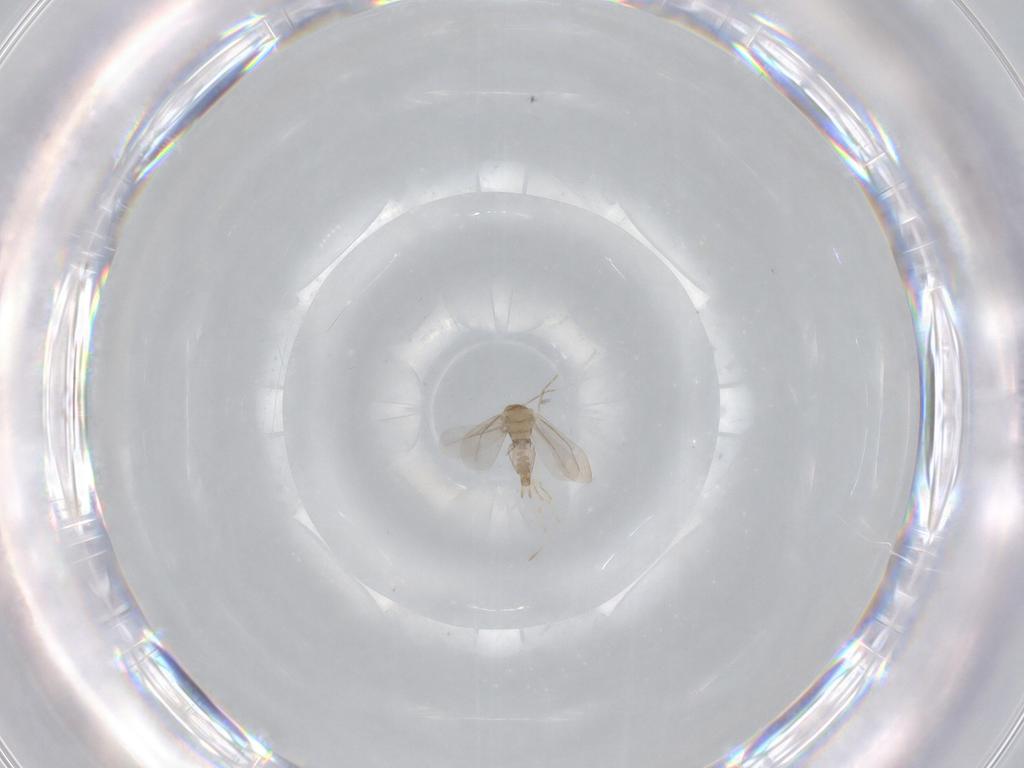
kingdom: Animalia
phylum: Arthropoda
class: Insecta
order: Hemiptera
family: Aleyrodidae
